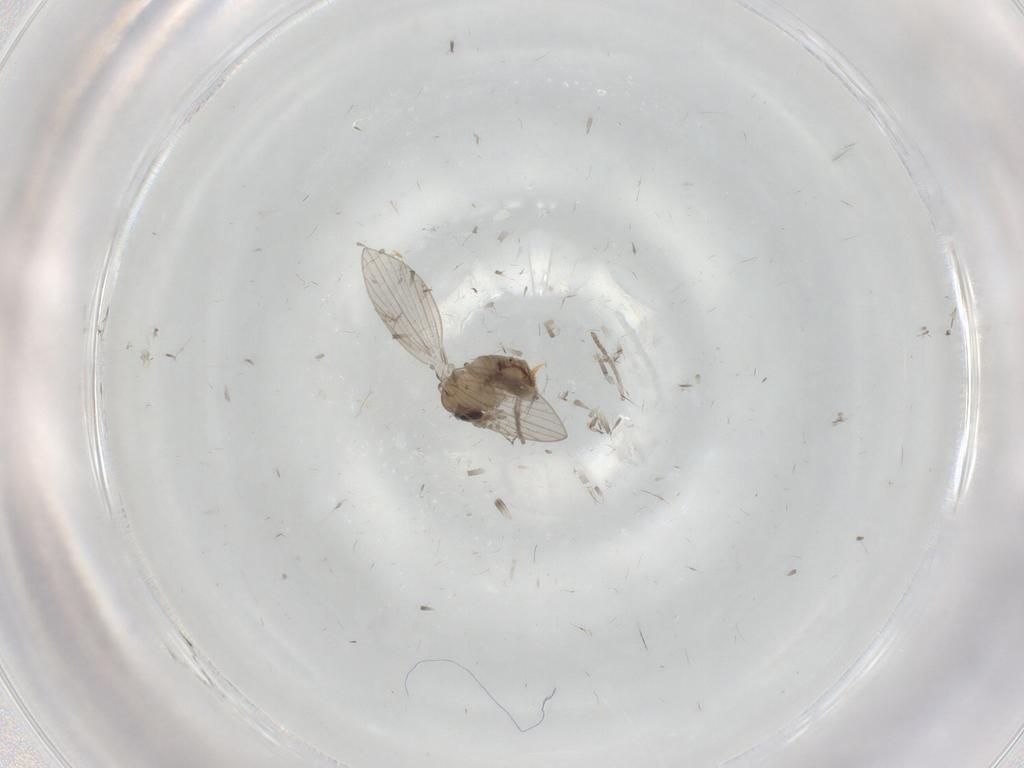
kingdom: Animalia
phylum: Arthropoda
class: Insecta
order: Diptera
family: Psychodidae
